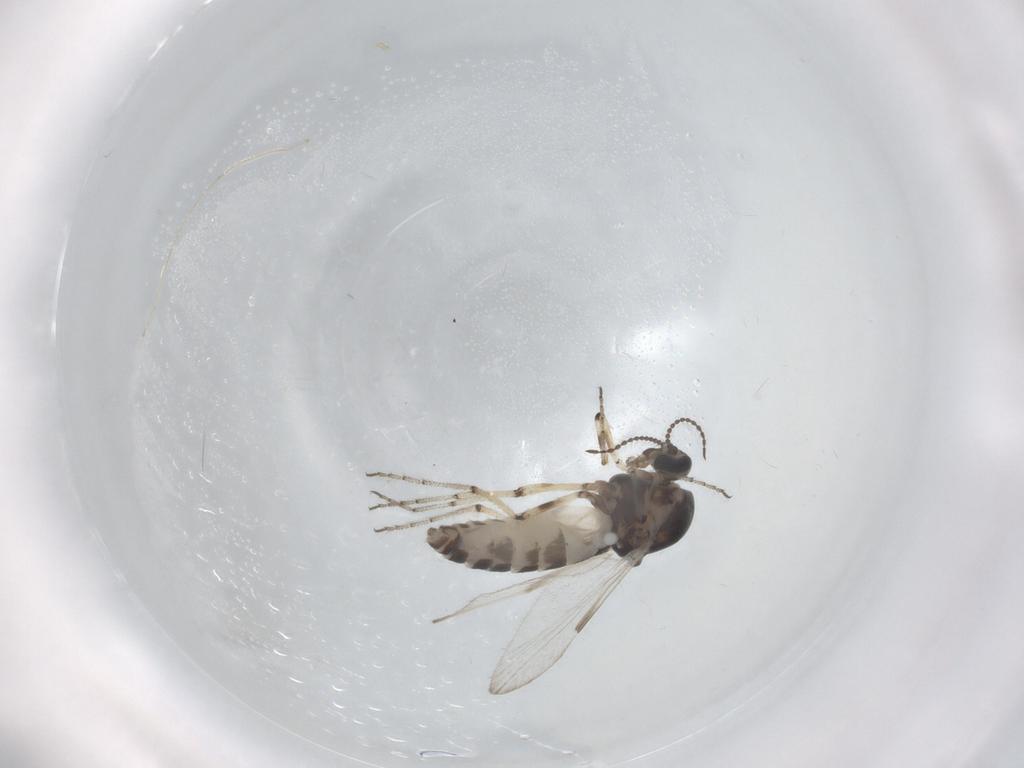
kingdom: Animalia
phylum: Arthropoda
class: Insecta
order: Diptera
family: Ceratopogonidae
